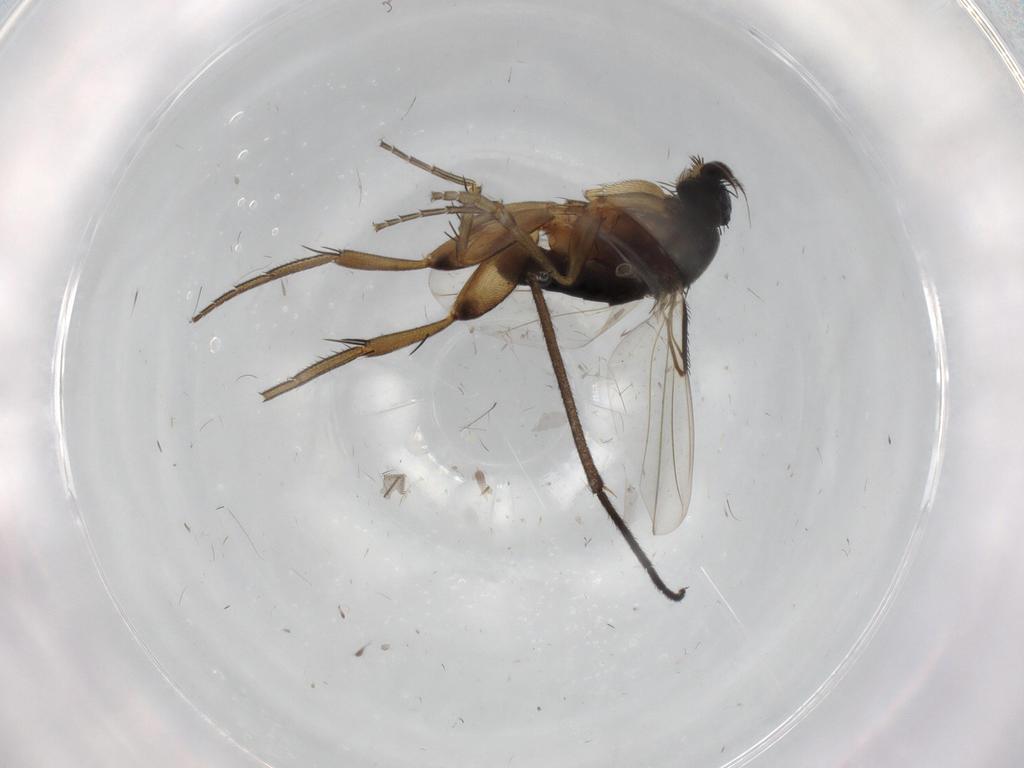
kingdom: Animalia
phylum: Arthropoda
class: Insecta
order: Diptera
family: Phoridae
